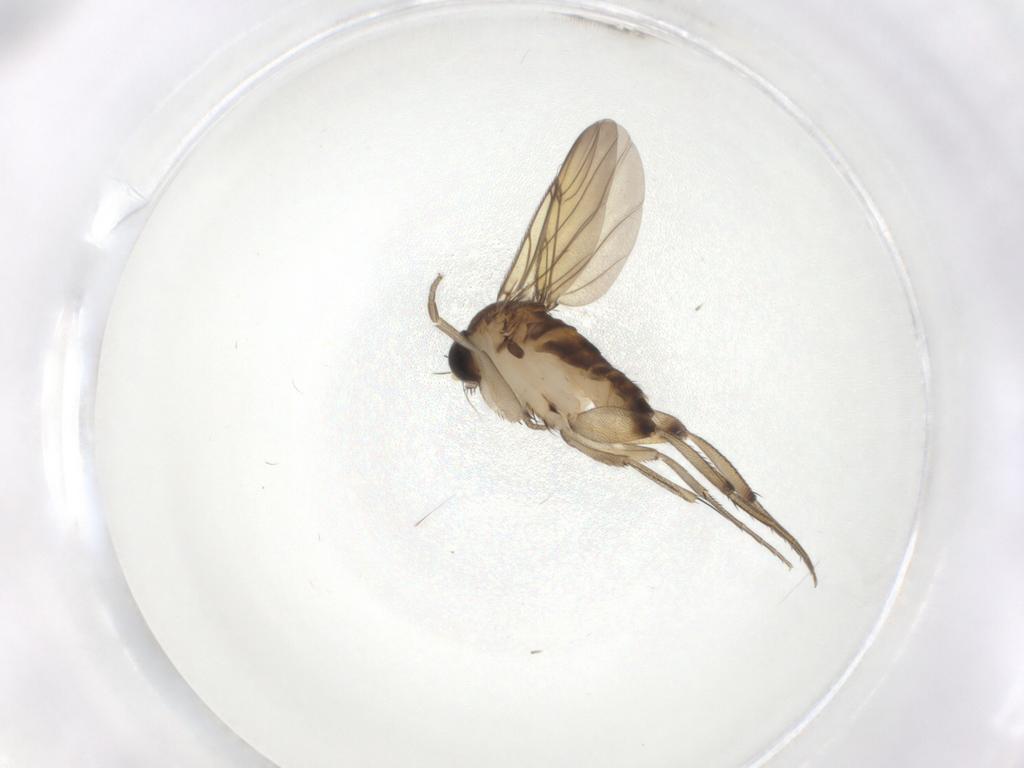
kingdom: Animalia
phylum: Arthropoda
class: Insecta
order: Diptera
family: Phoridae
